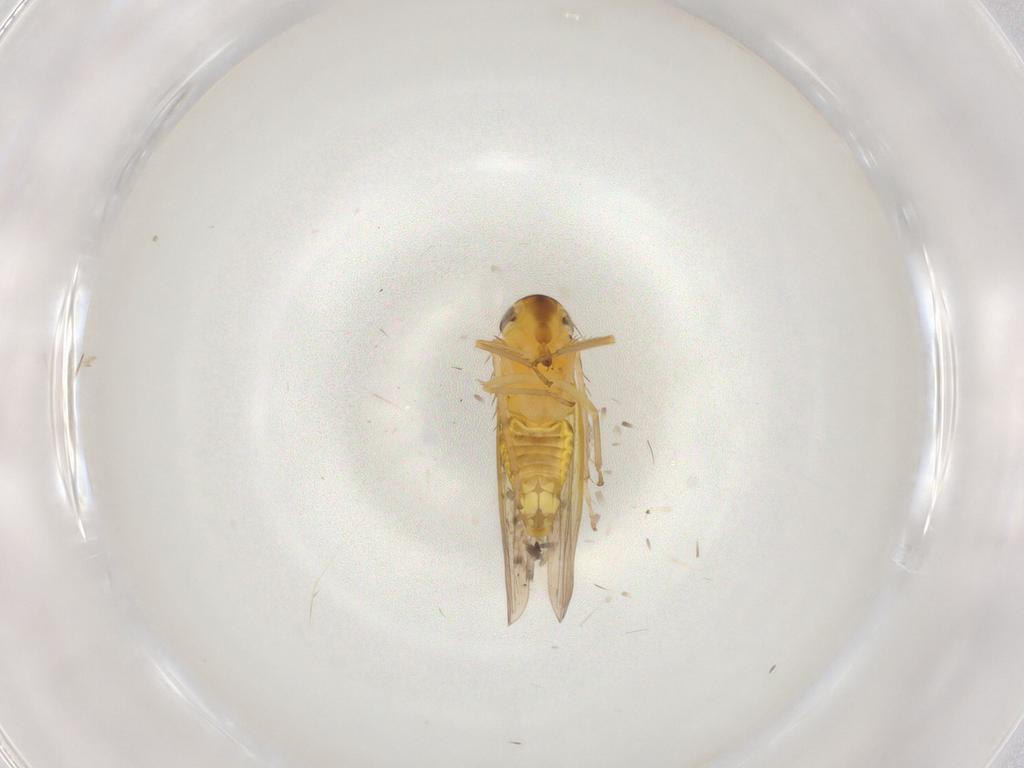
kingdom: Animalia
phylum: Arthropoda
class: Insecta
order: Hemiptera
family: Cicadellidae
